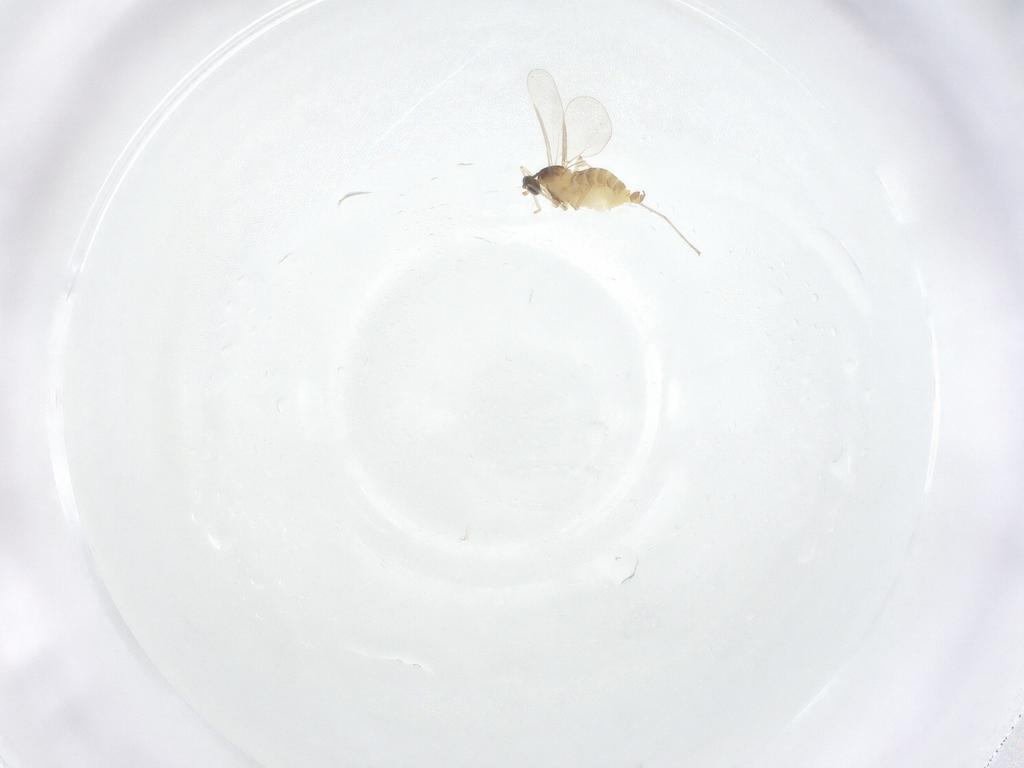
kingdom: Animalia
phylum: Arthropoda
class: Insecta
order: Diptera
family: Cecidomyiidae
